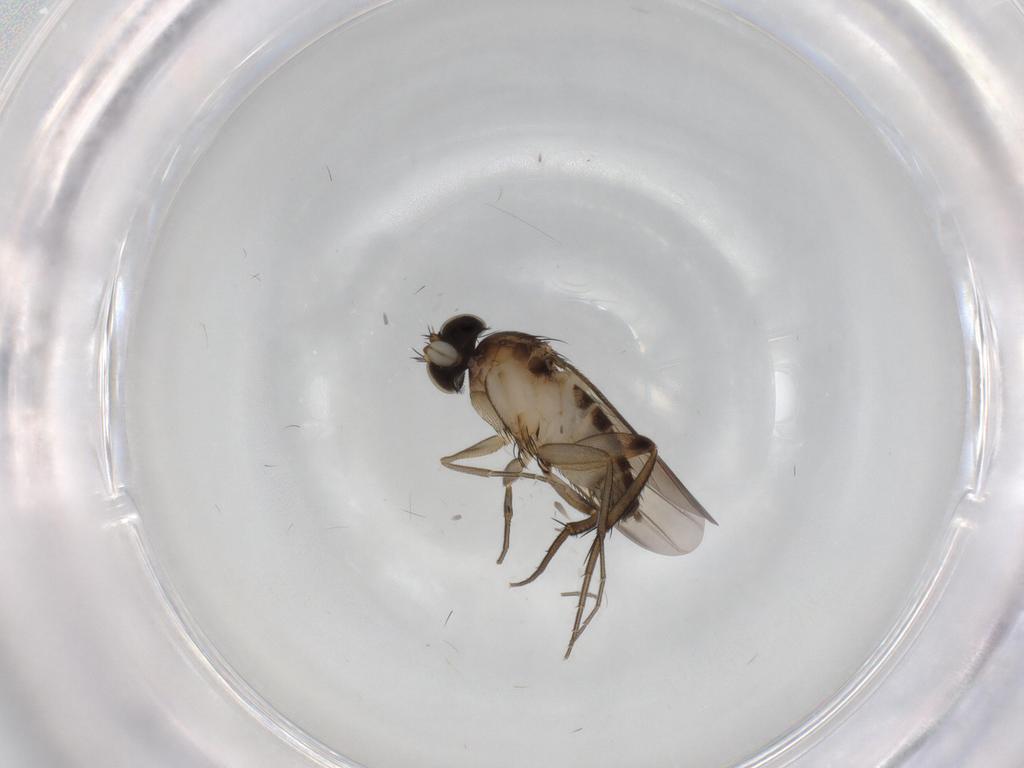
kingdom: Animalia
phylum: Arthropoda
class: Insecta
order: Diptera
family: Phoridae
